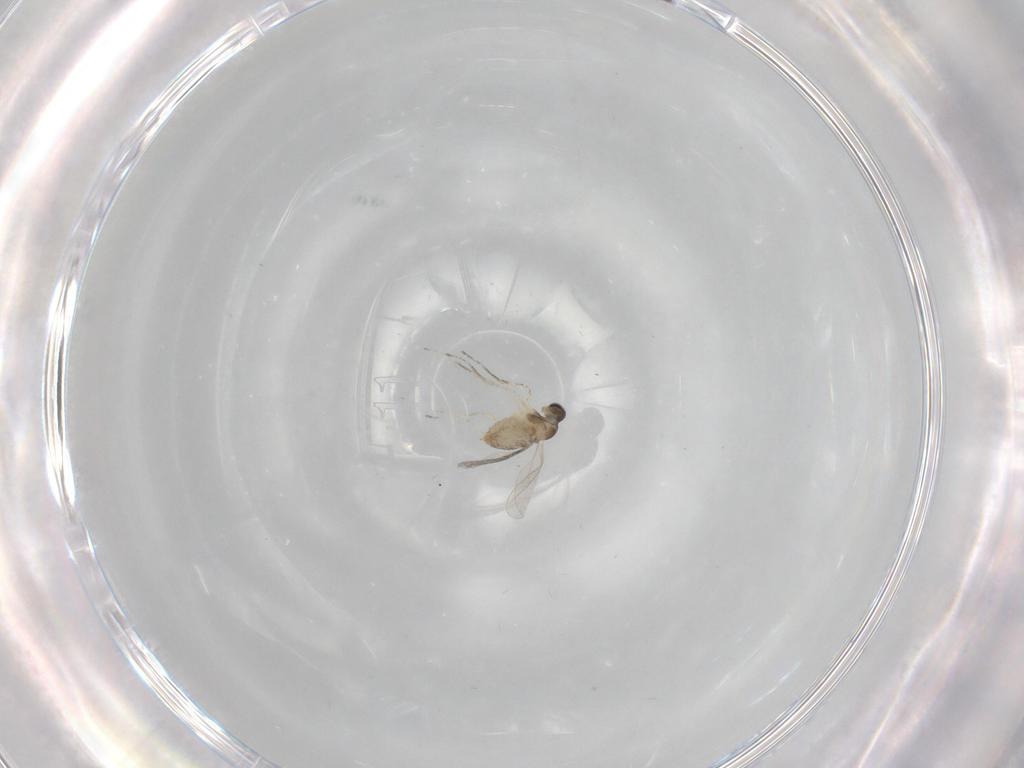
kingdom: Animalia
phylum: Arthropoda
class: Insecta
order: Diptera
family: Cecidomyiidae
